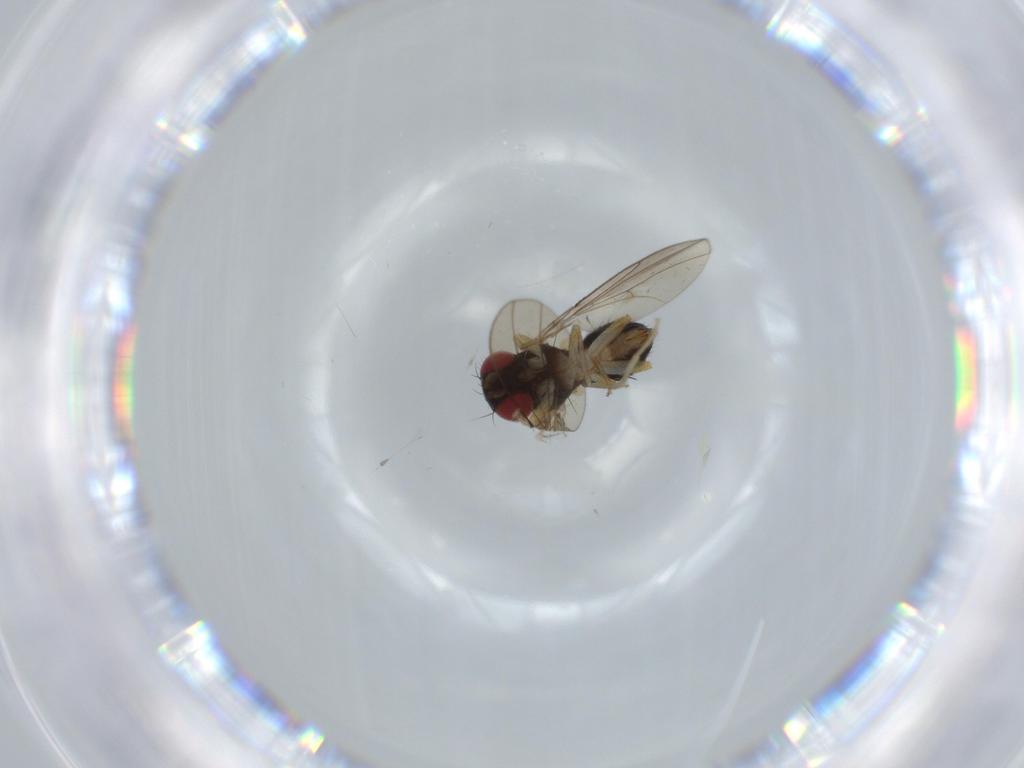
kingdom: Animalia
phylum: Arthropoda
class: Insecta
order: Diptera
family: Drosophilidae
